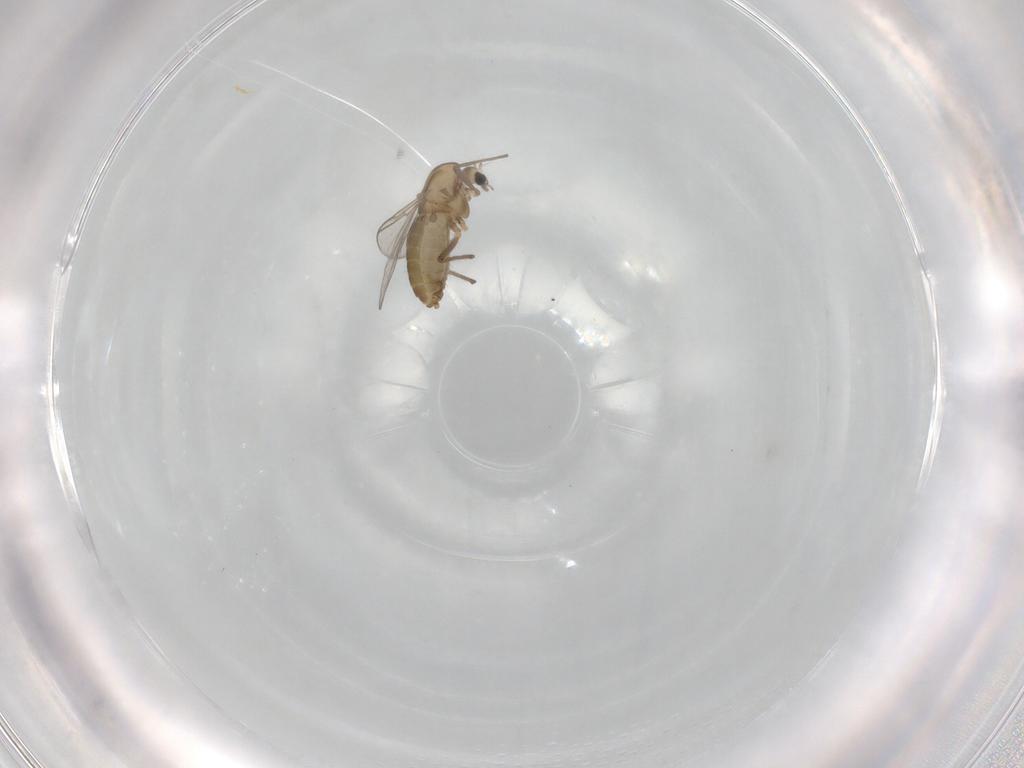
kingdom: Animalia
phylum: Arthropoda
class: Insecta
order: Diptera
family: Chironomidae
